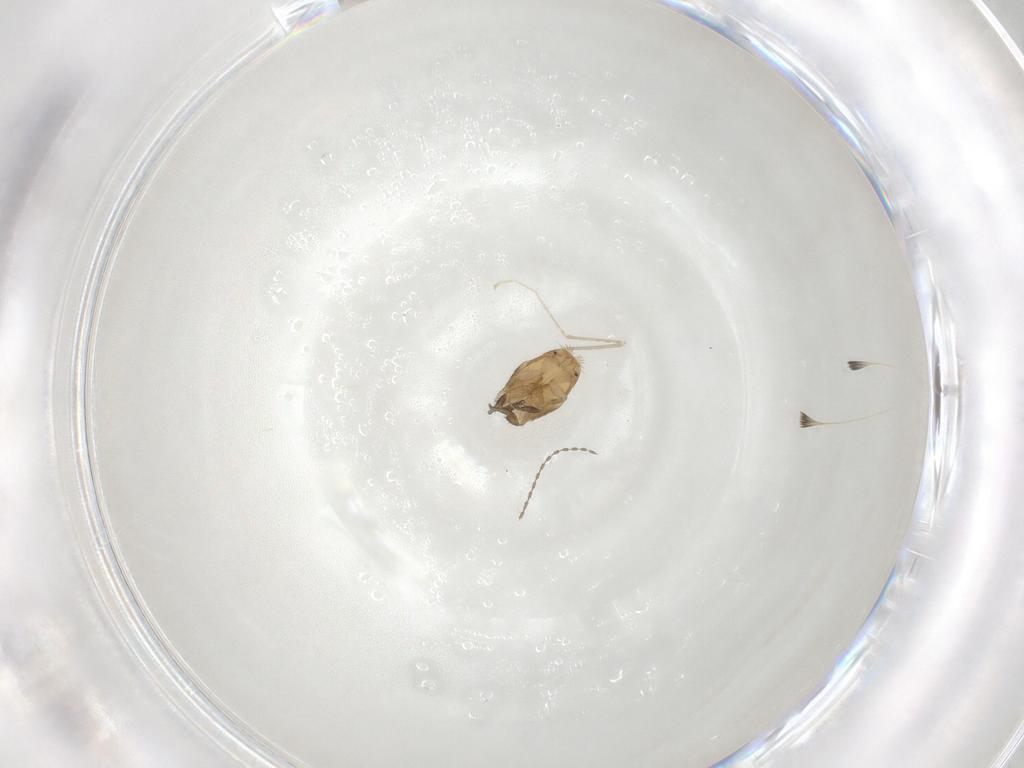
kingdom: Animalia
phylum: Arthropoda
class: Insecta
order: Diptera
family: Phoridae
